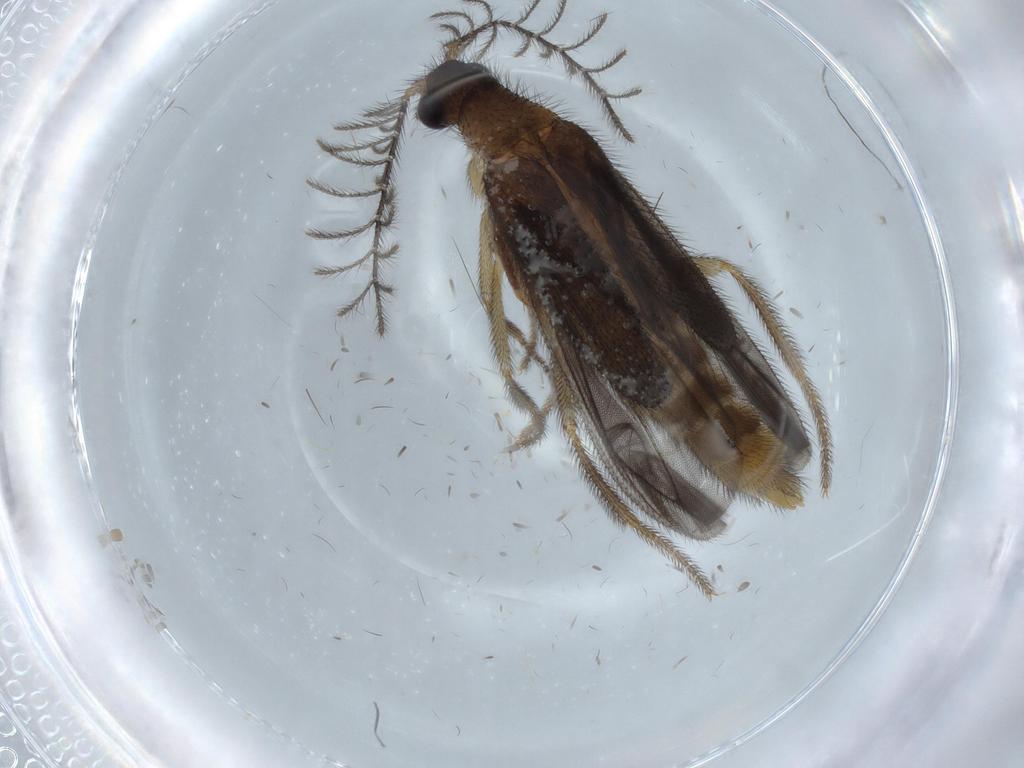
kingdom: Animalia
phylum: Arthropoda
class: Insecta
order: Coleoptera
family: Phengodidae
